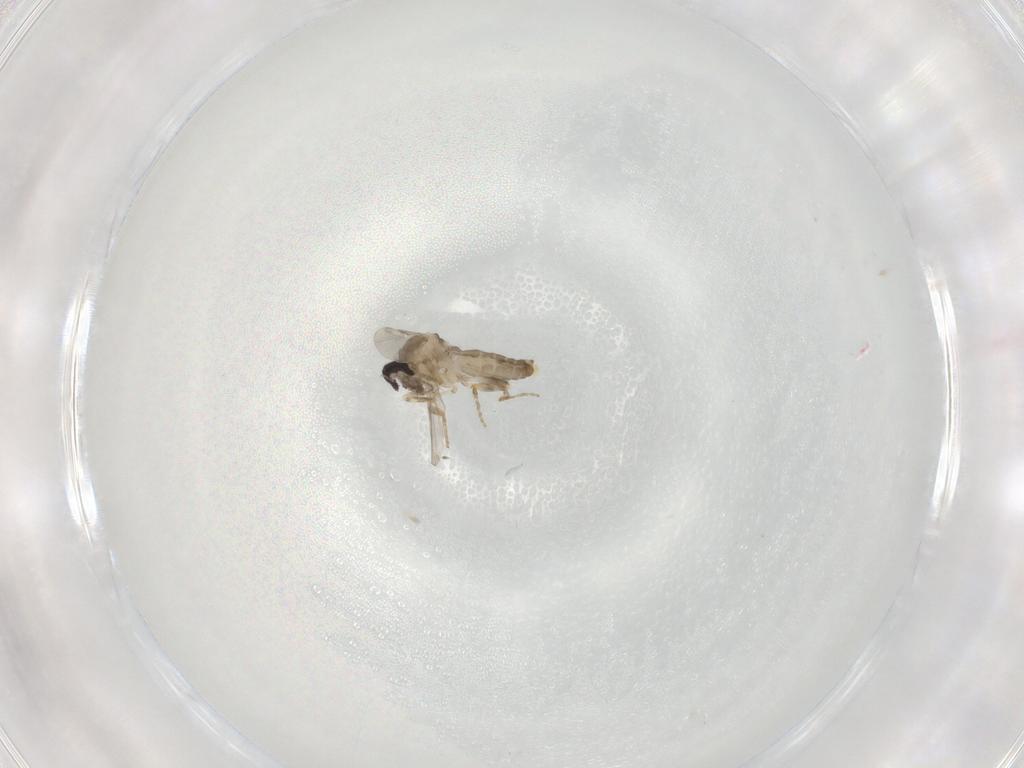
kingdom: Animalia
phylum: Arthropoda
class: Insecta
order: Diptera
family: Ceratopogonidae
